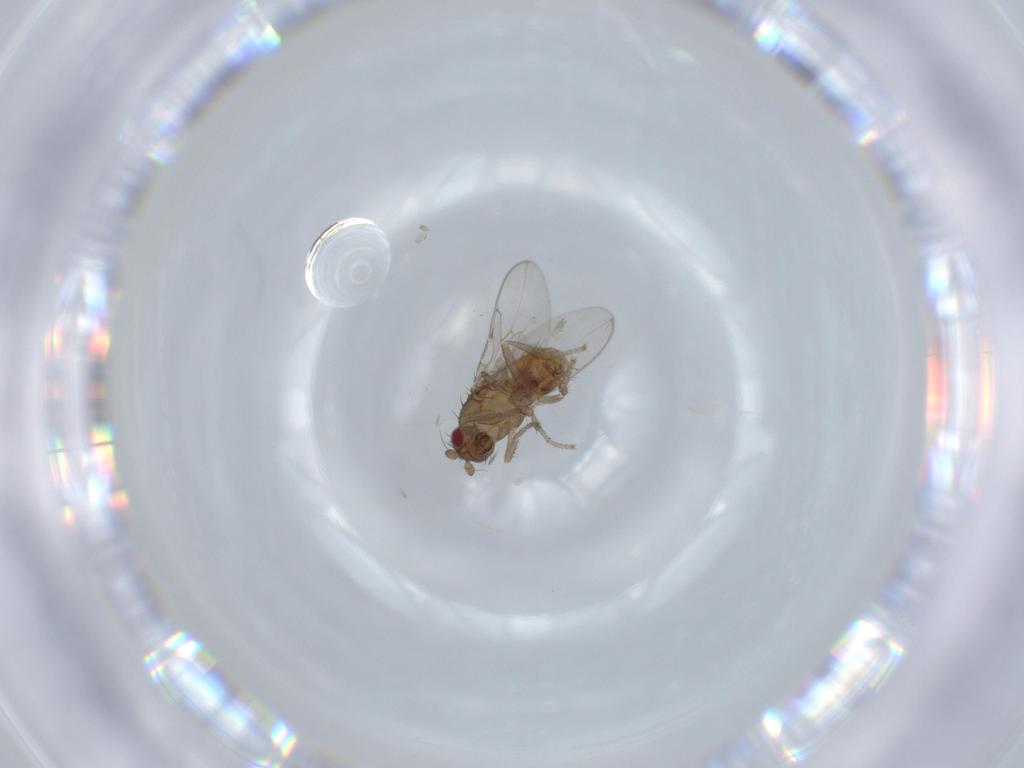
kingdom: Animalia
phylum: Arthropoda
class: Insecta
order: Diptera
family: Sphaeroceridae
